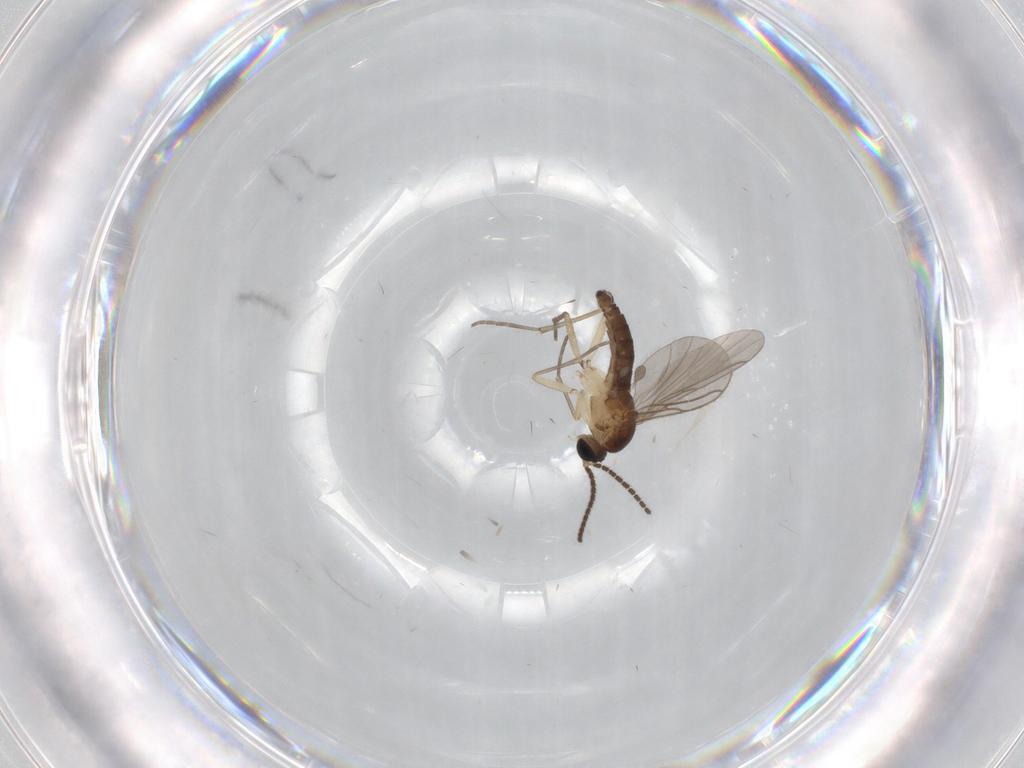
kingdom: Animalia
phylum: Arthropoda
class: Insecta
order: Diptera
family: Sciaridae
